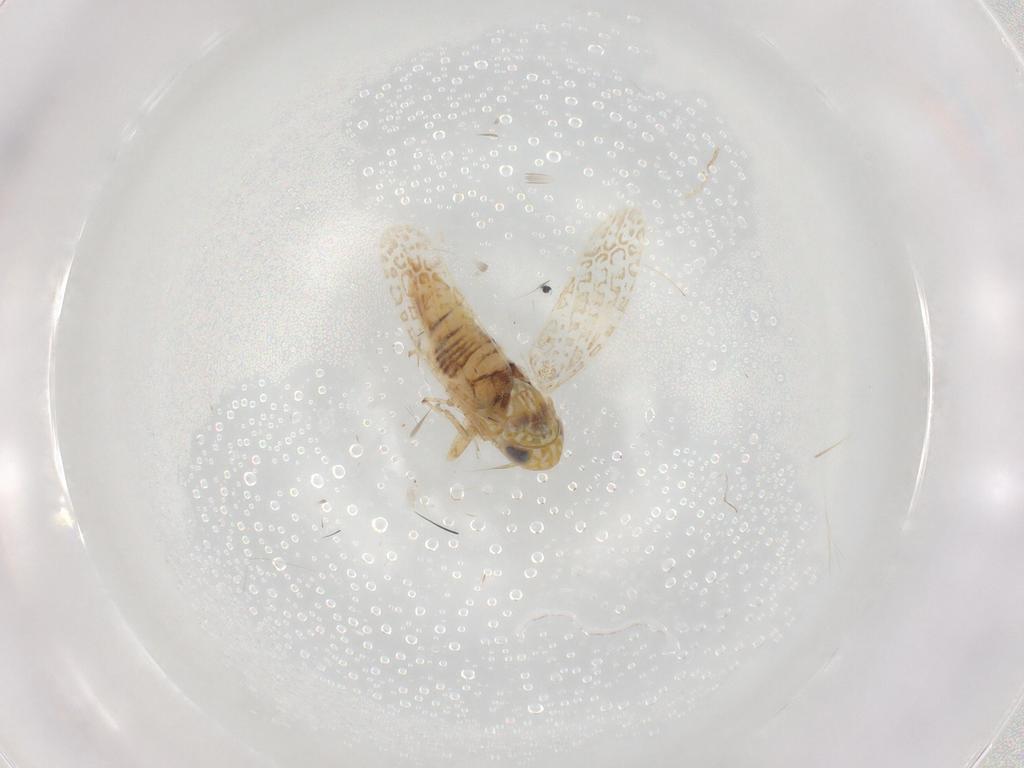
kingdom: Animalia
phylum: Arthropoda
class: Insecta
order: Hemiptera
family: Cicadellidae
